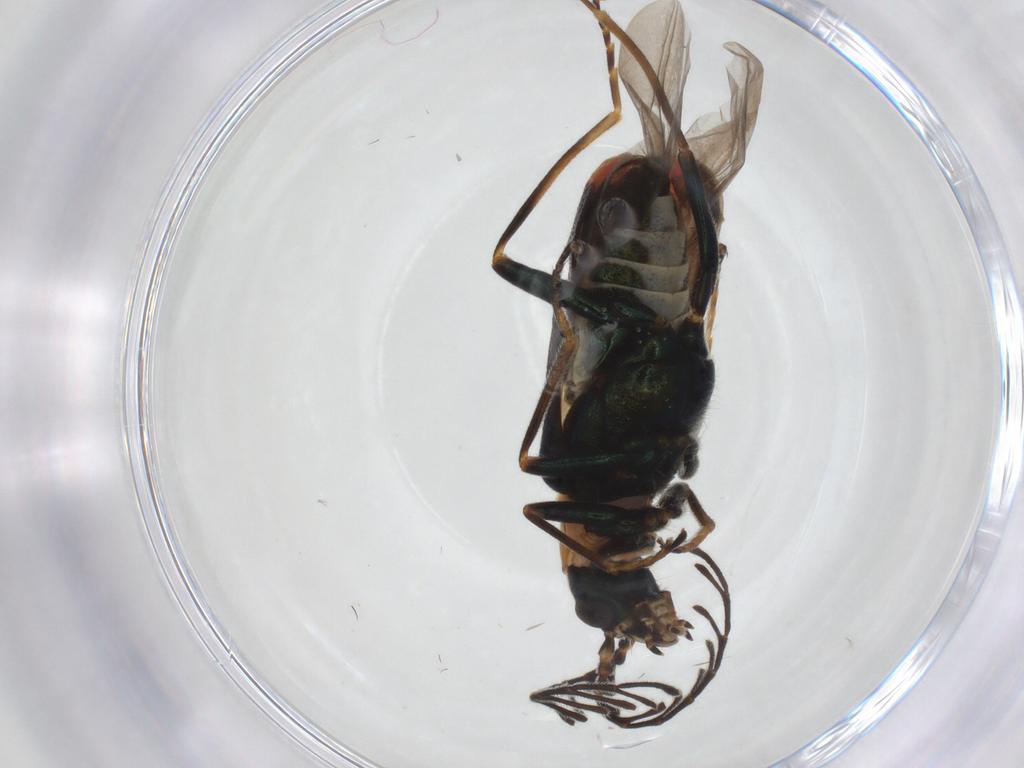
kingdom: Animalia
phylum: Arthropoda
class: Insecta
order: Coleoptera
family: Melyridae
